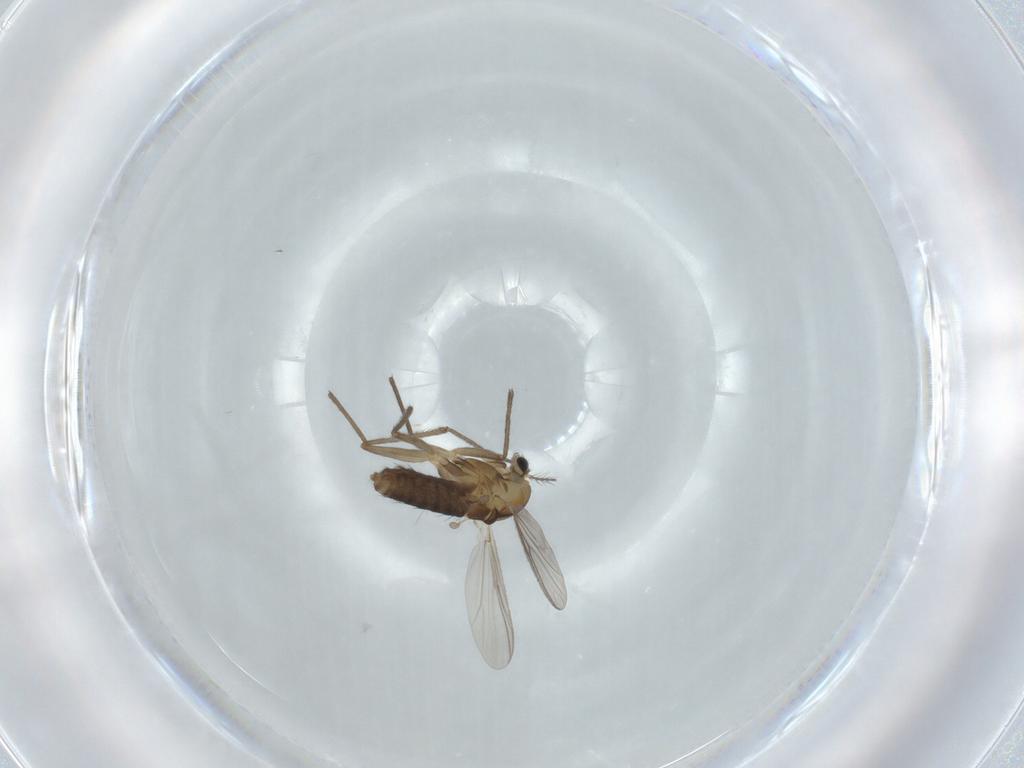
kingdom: Animalia
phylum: Arthropoda
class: Insecta
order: Diptera
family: Chironomidae
